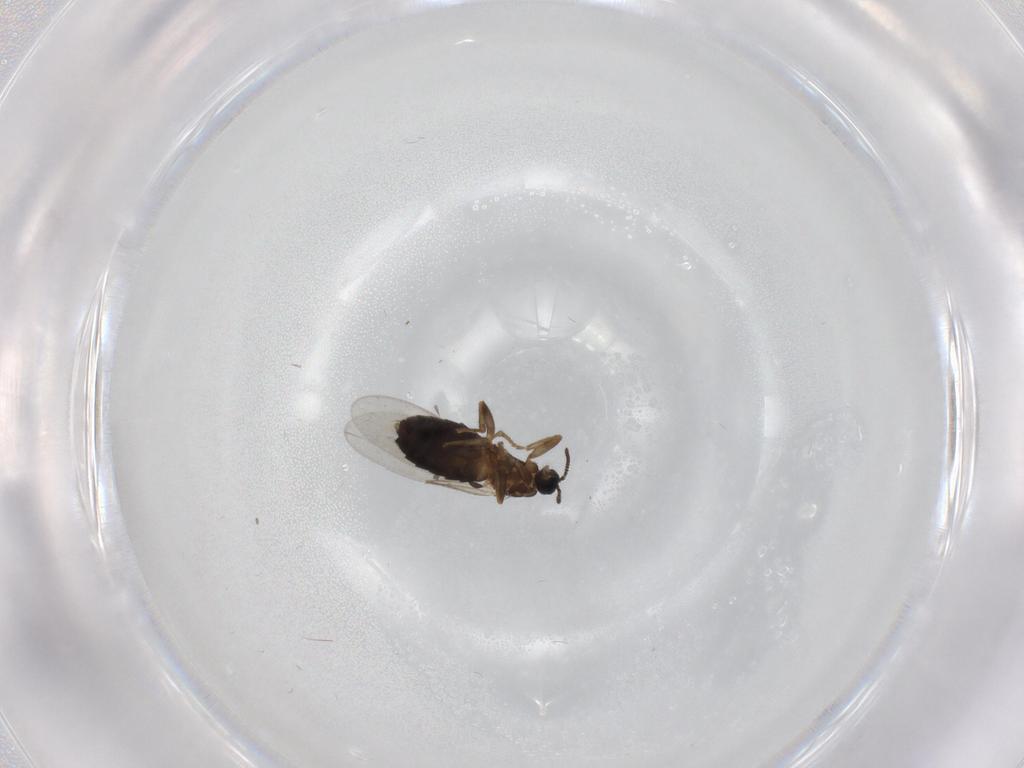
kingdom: Animalia
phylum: Arthropoda
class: Insecta
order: Diptera
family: Scatopsidae
